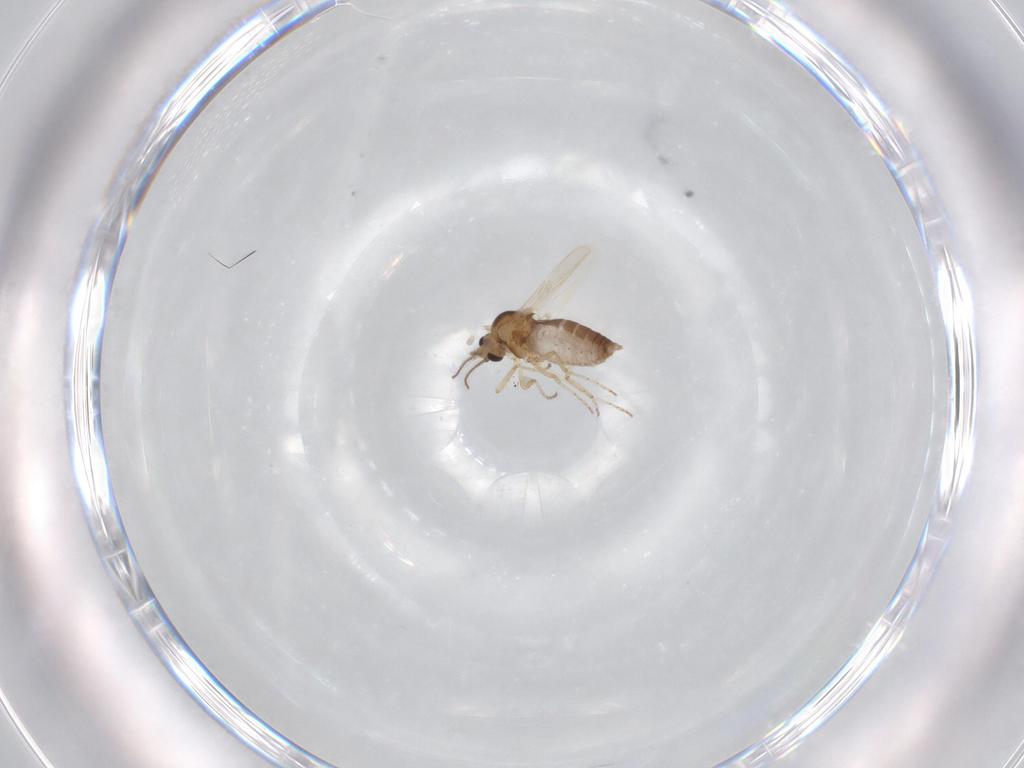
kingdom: Animalia
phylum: Arthropoda
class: Insecta
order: Diptera
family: Ceratopogonidae
